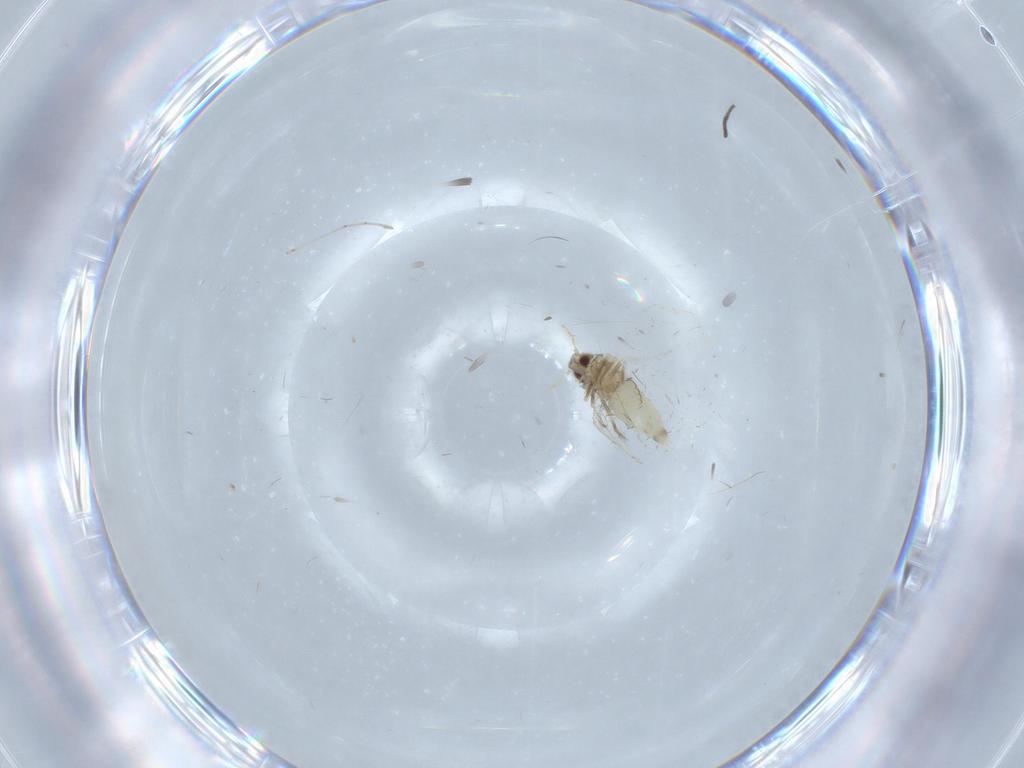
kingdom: Animalia
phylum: Arthropoda
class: Insecta
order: Hemiptera
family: Aleyrodidae
